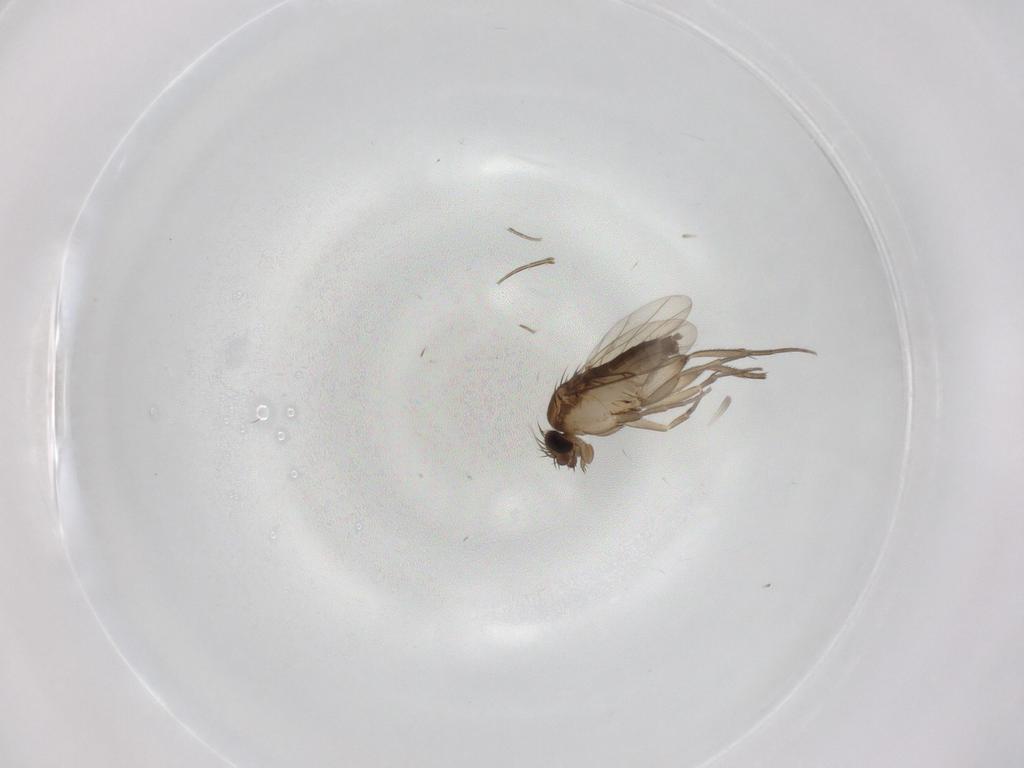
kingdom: Animalia
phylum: Arthropoda
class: Insecta
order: Diptera
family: Phoridae
